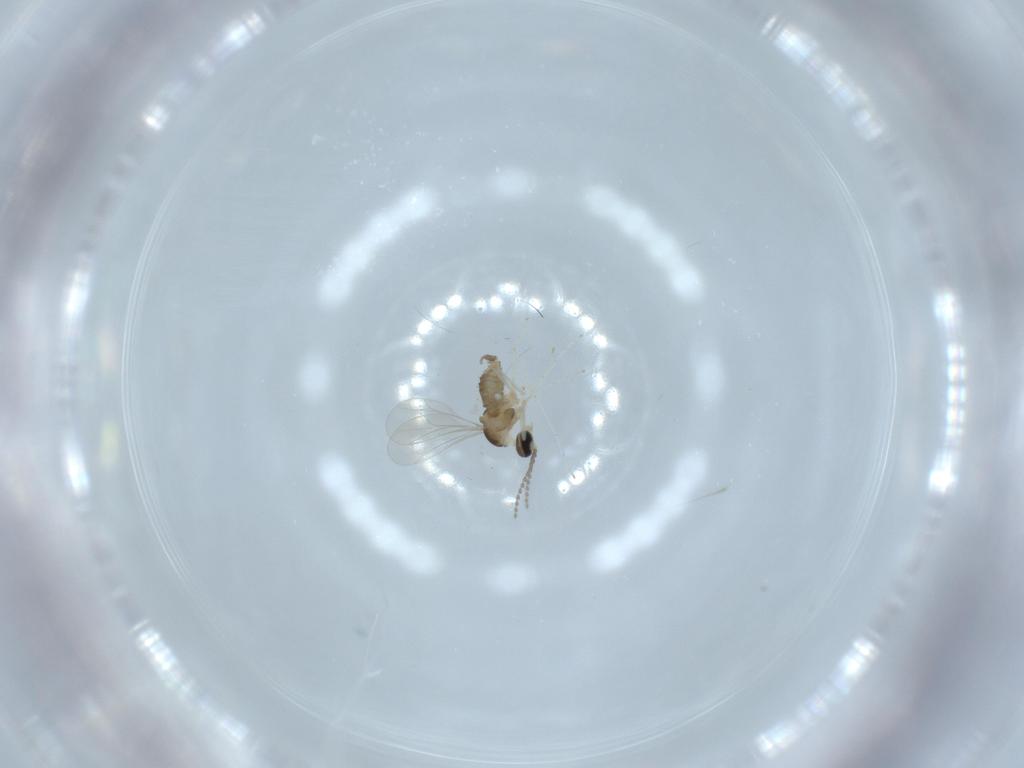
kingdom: Animalia
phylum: Arthropoda
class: Insecta
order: Diptera
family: Cecidomyiidae
